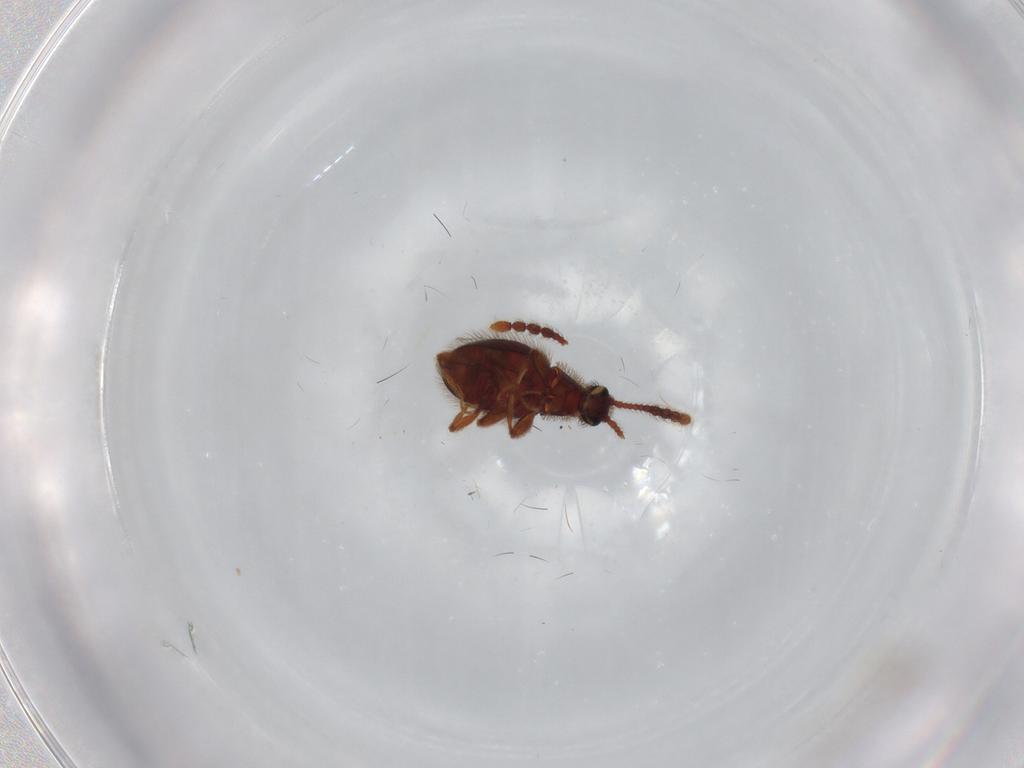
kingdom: Animalia
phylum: Arthropoda
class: Insecta
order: Coleoptera
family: Staphylinidae
